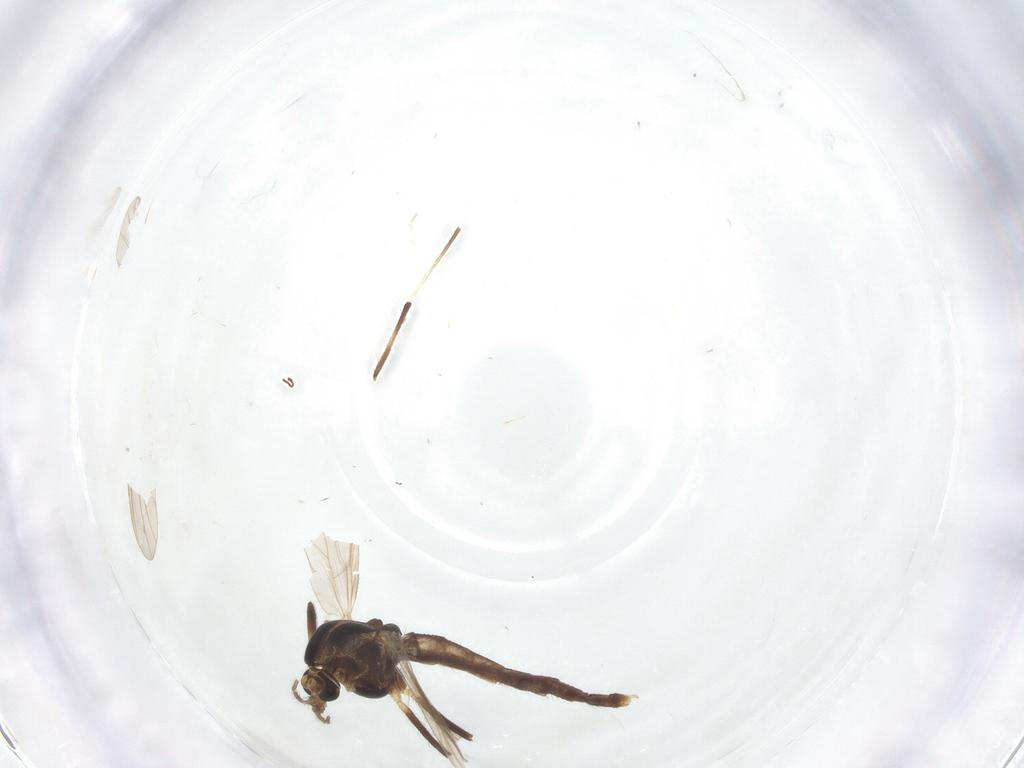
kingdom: Animalia
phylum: Arthropoda
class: Insecta
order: Diptera
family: Chironomidae
